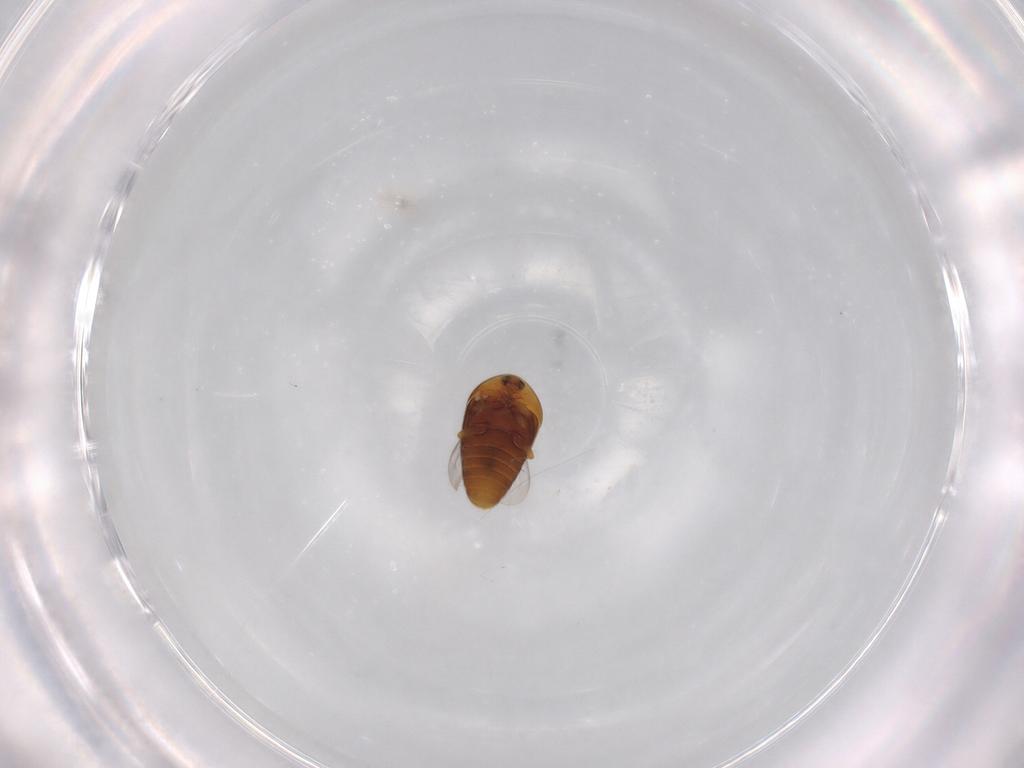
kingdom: Animalia
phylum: Arthropoda
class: Insecta
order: Coleoptera
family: Corylophidae
